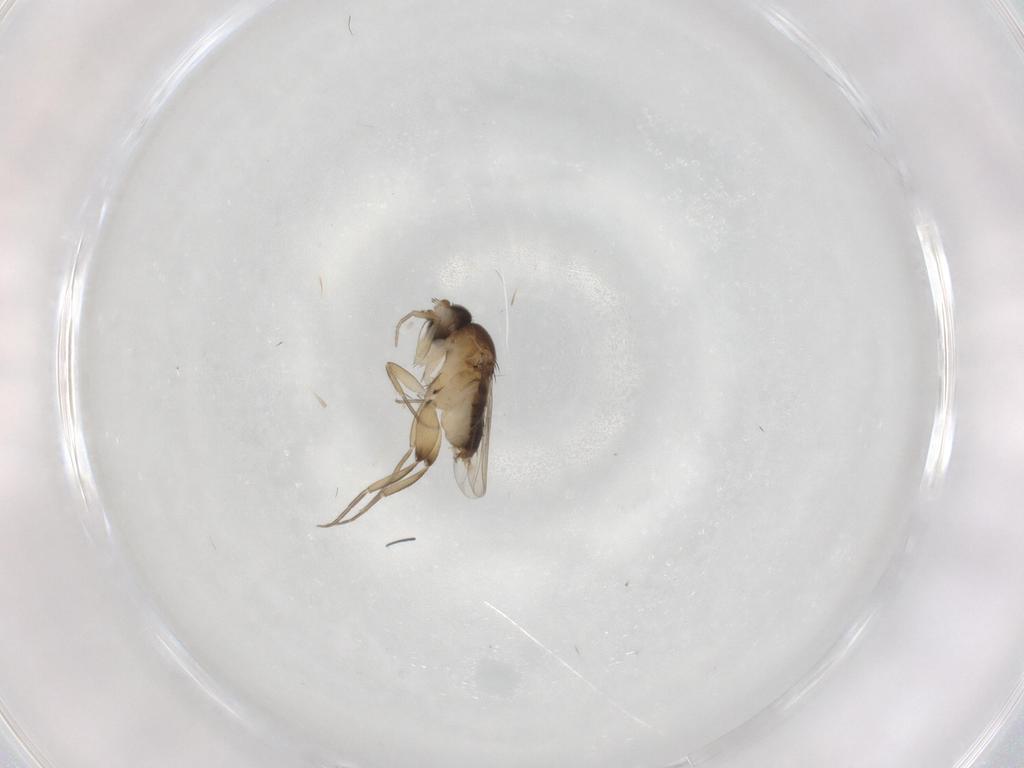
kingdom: Animalia
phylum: Arthropoda
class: Insecta
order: Diptera
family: Phoridae
